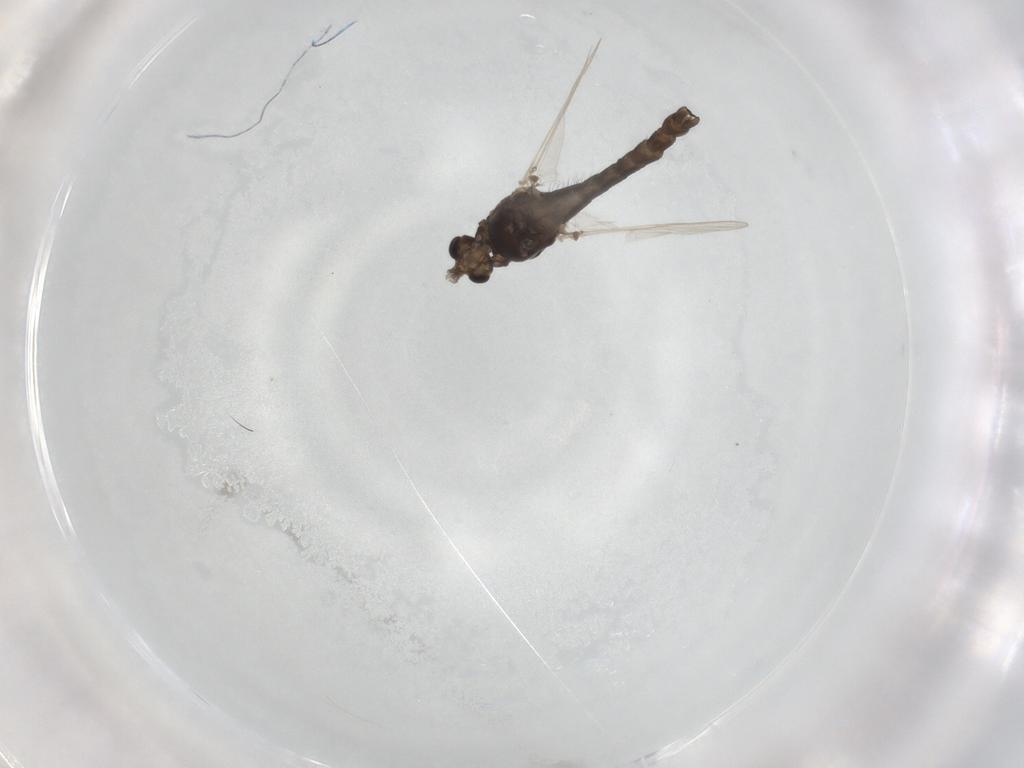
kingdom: Animalia
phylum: Arthropoda
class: Insecta
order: Diptera
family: Chironomidae
